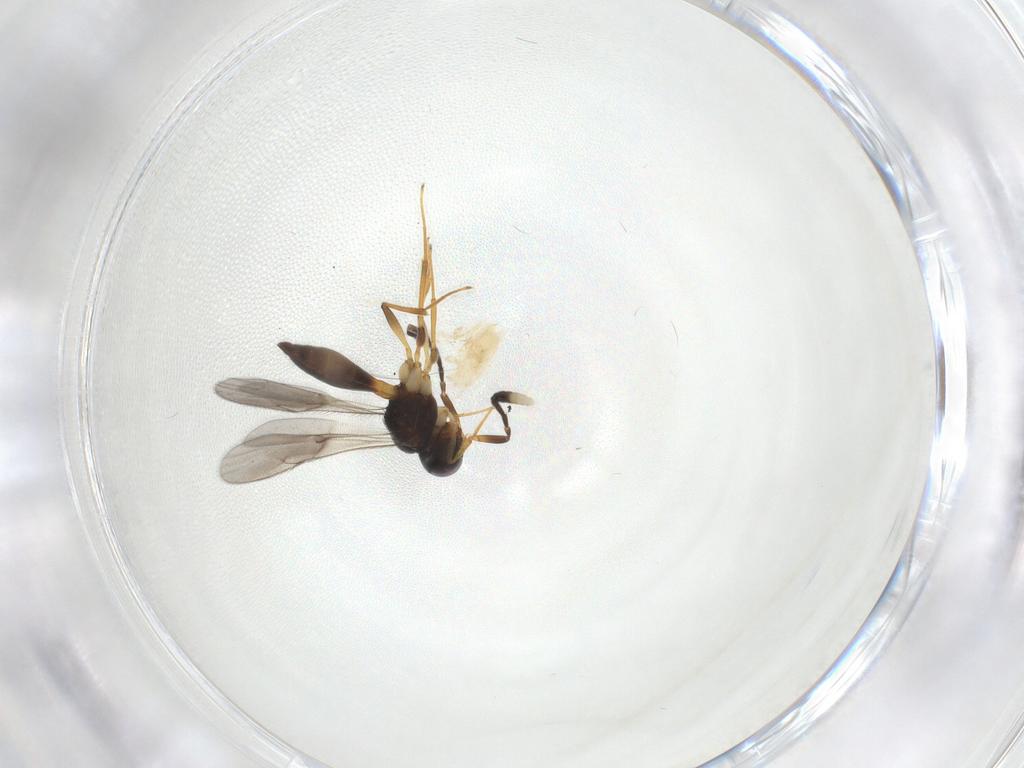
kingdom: Animalia
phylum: Arthropoda
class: Insecta
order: Hymenoptera
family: Scelionidae
